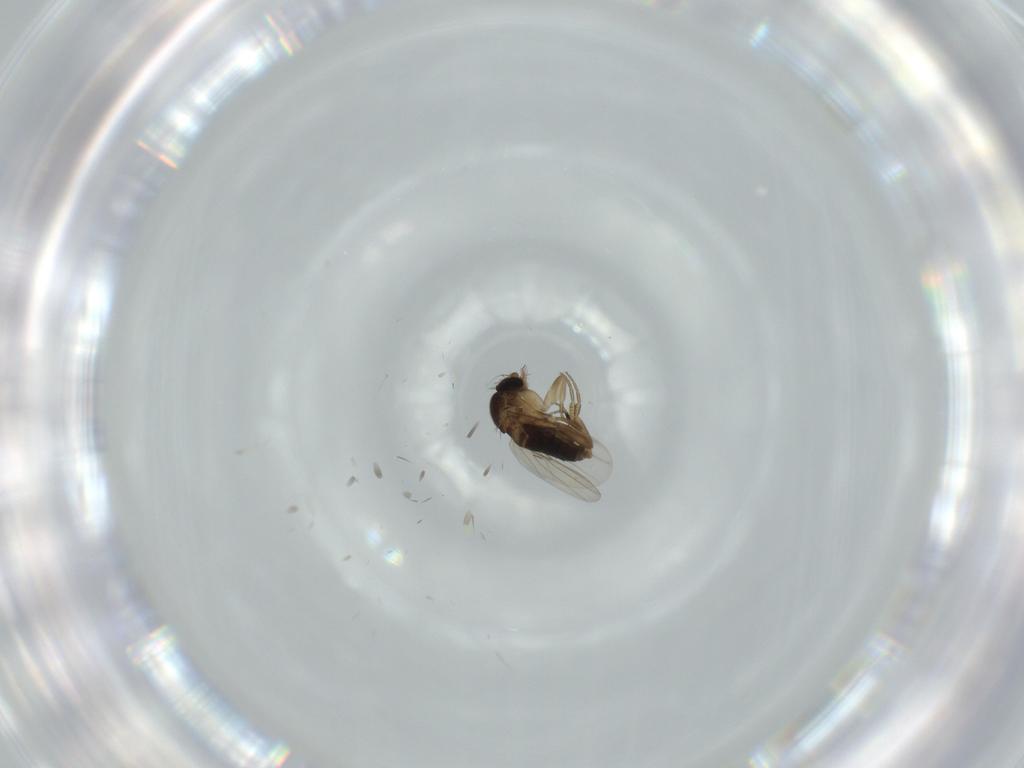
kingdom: Animalia
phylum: Arthropoda
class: Insecta
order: Diptera
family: Phoridae
